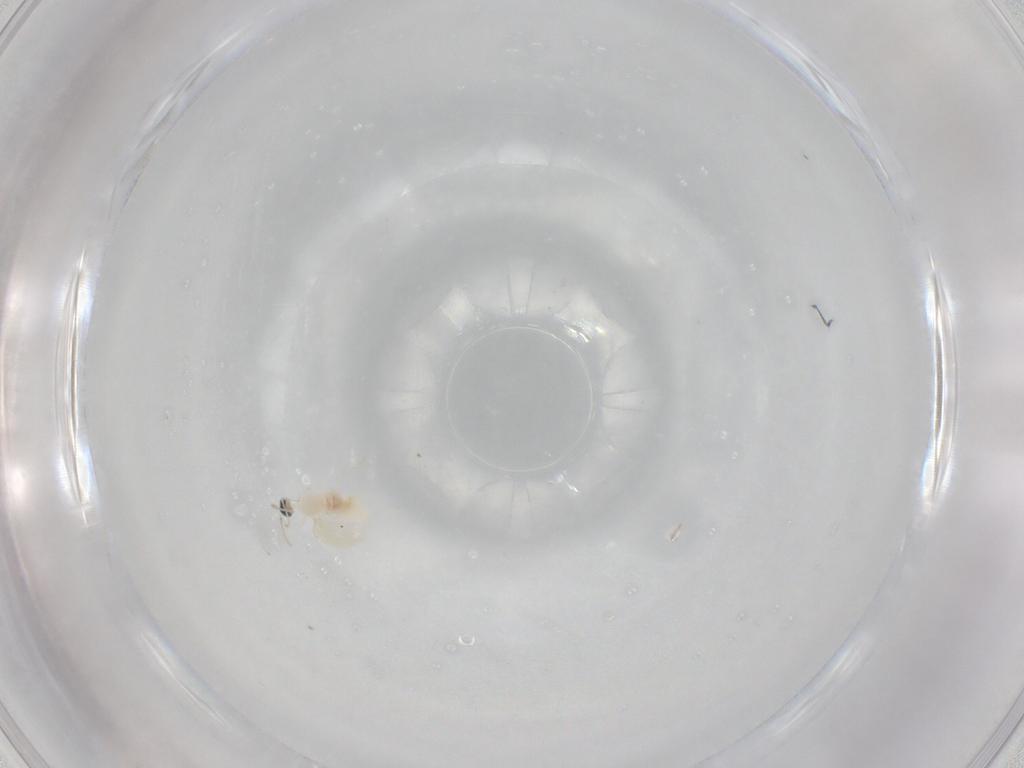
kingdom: Animalia
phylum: Arthropoda
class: Insecta
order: Diptera
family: Cecidomyiidae
